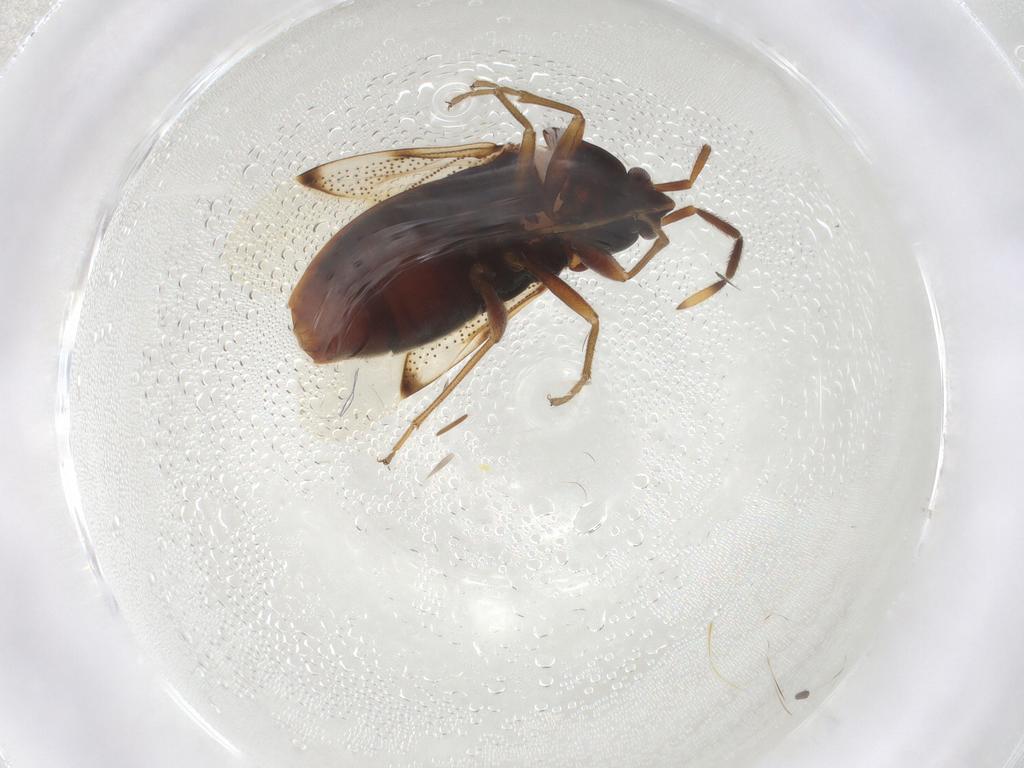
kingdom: Animalia
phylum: Arthropoda
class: Insecta
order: Hemiptera
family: Rhyparochromidae
